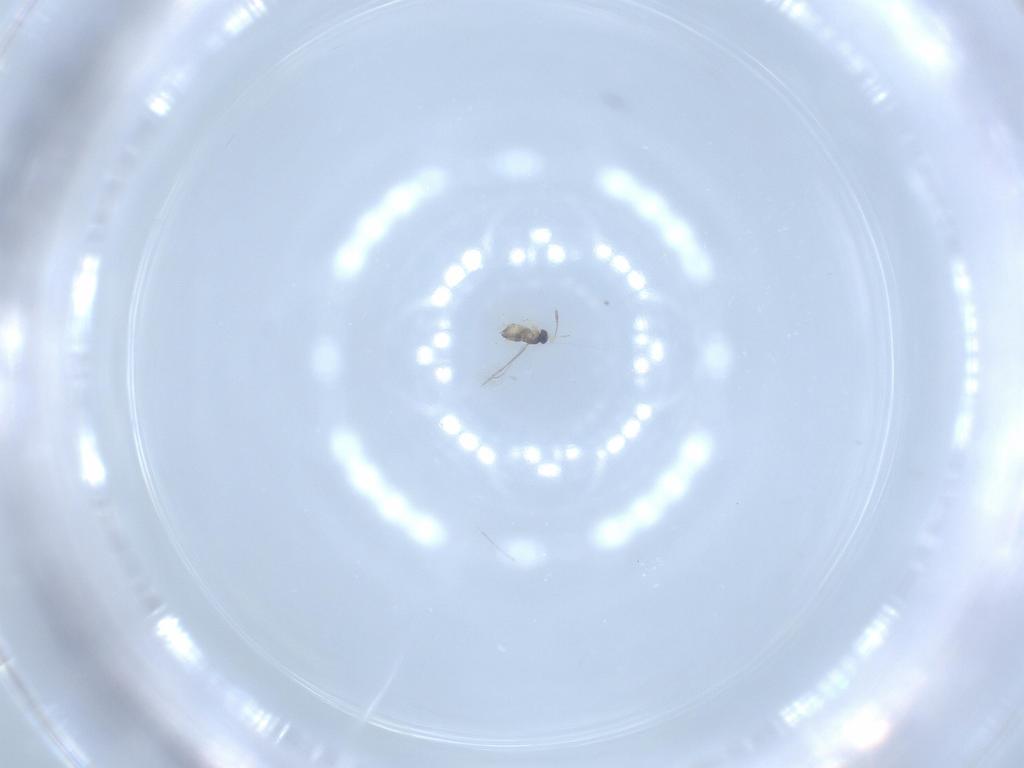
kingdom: Animalia
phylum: Arthropoda
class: Insecta
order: Hymenoptera
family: Mymaridae
